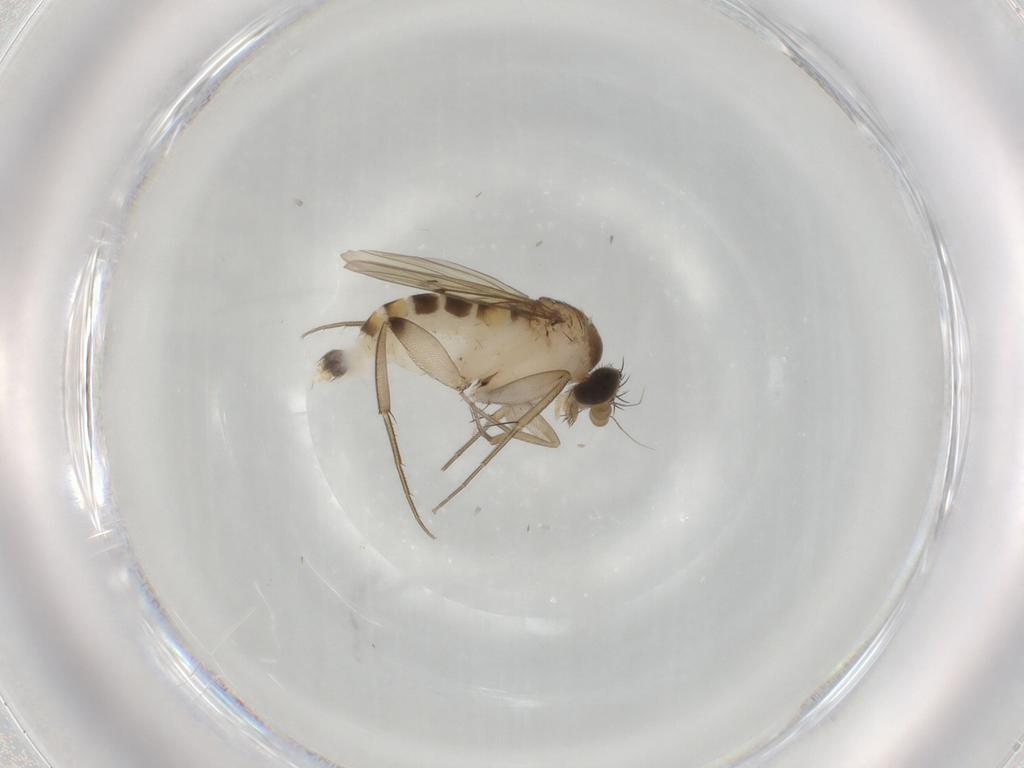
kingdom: Animalia
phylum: Arthropoda
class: Insecta
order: Diptera
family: Phoridae
